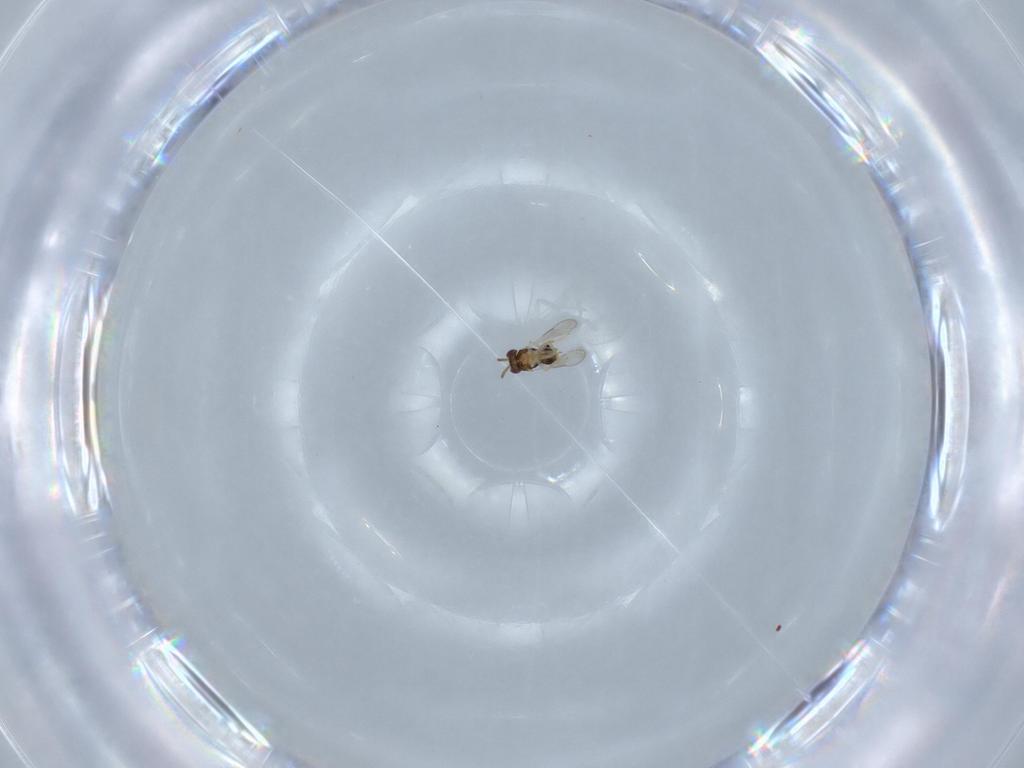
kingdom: Animalia
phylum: Arthropoda
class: Insecta
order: Hymenoptera
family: Aphelinidae
